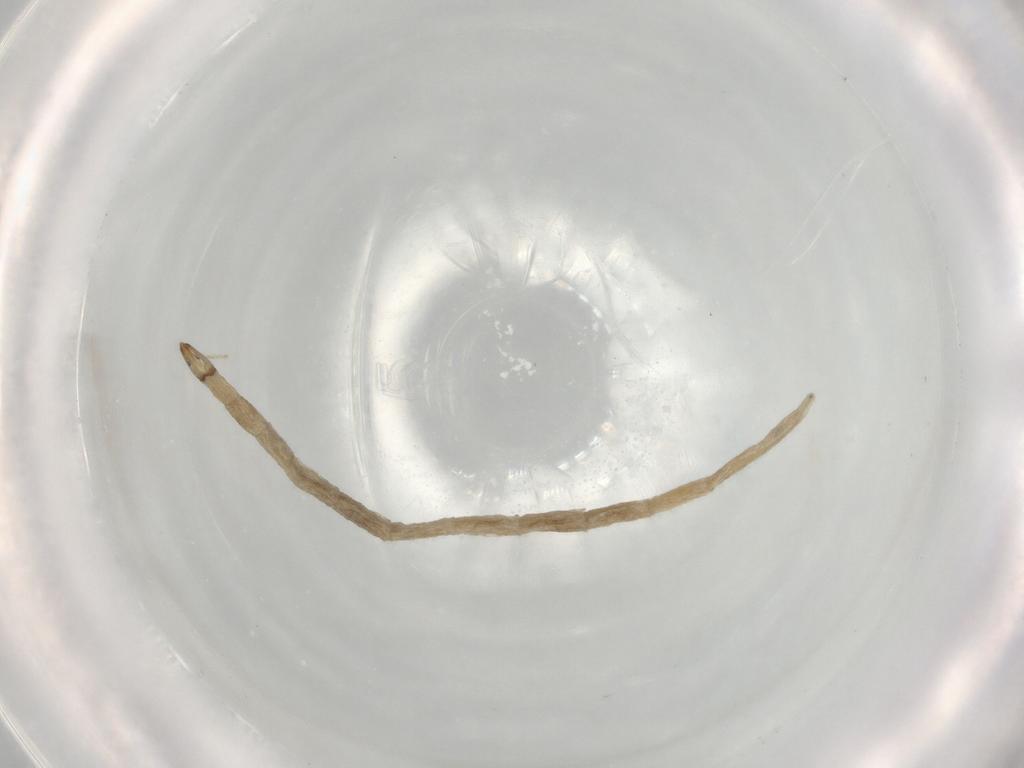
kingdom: Animalia
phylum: Arthropoda
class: Insecta
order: Diptera
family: Ceratopogonidae
